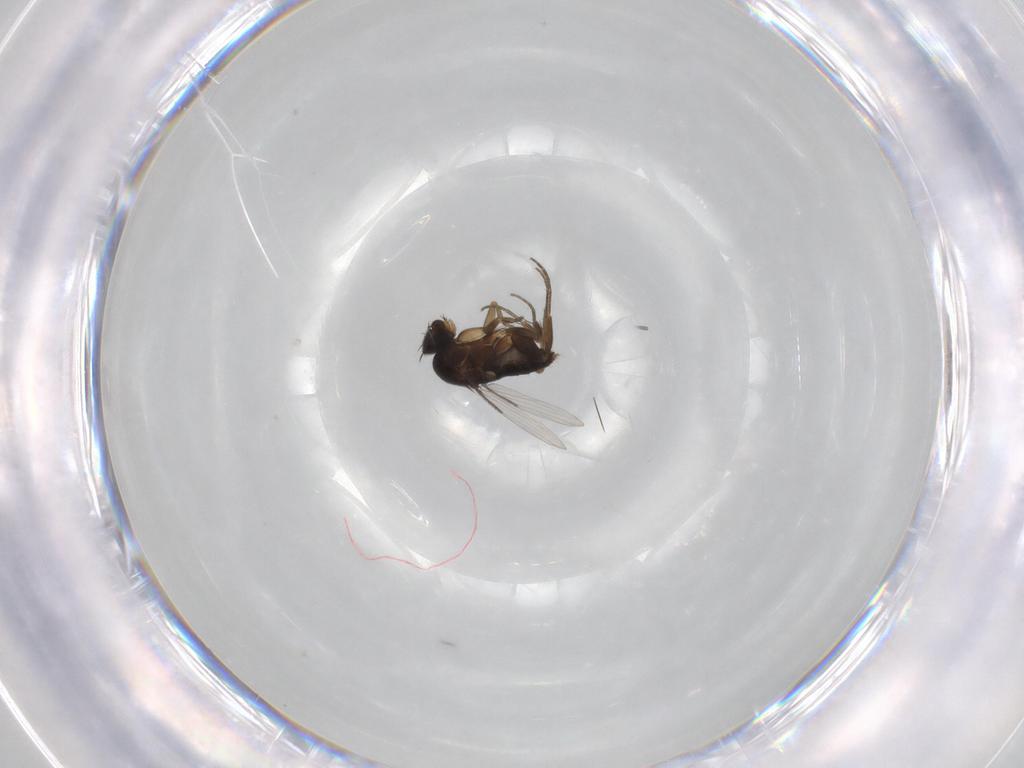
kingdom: Animalia
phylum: Arthropoda
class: Insecta
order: Diptera
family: Phoridae
